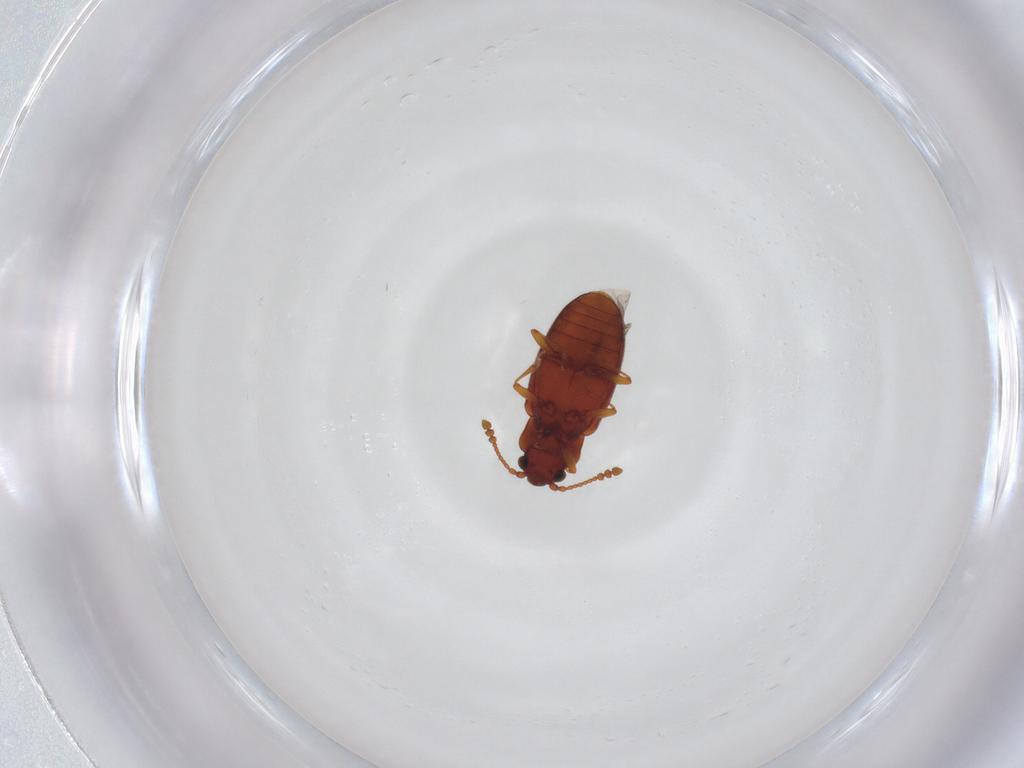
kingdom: Animalia
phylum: Arthropoda
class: Insecta
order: Coleoptera
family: Cryptophagidae
